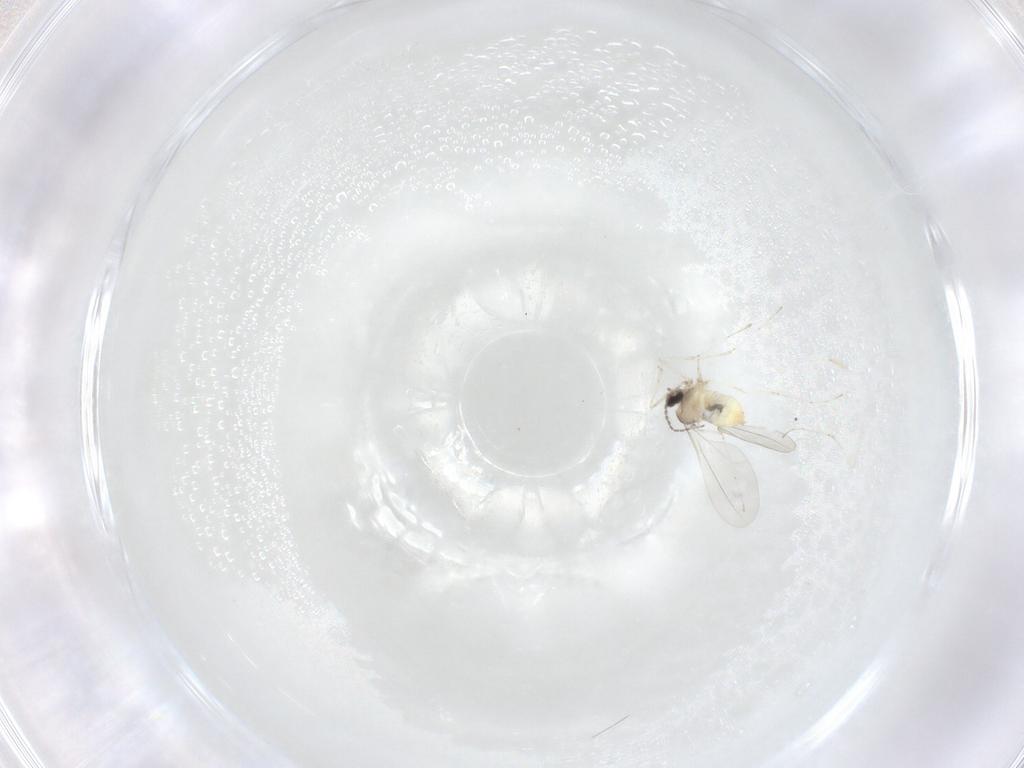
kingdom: Animalia
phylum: Arthropoda
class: Insecta
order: Diptera
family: Cecidomyiidae
